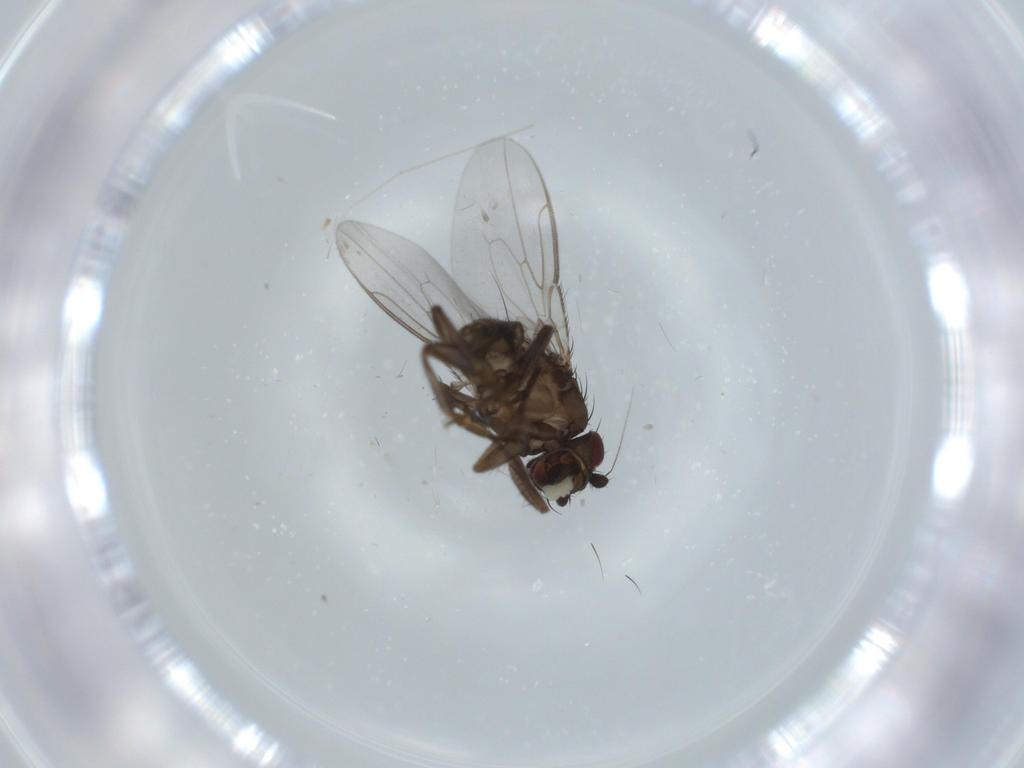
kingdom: Animalia
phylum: Arthropoda
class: Insecta
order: Diptera
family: Sphaeroceridae
